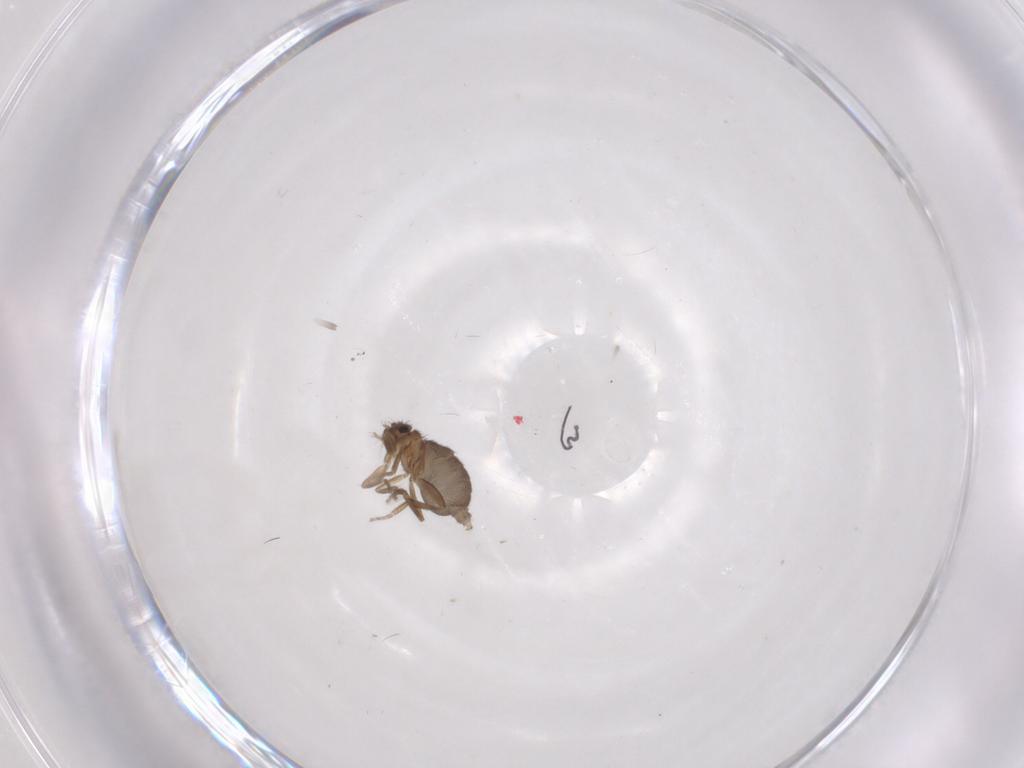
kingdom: Animalia
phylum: Arthropoda
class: Insecta
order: Diptera
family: Phoridae
